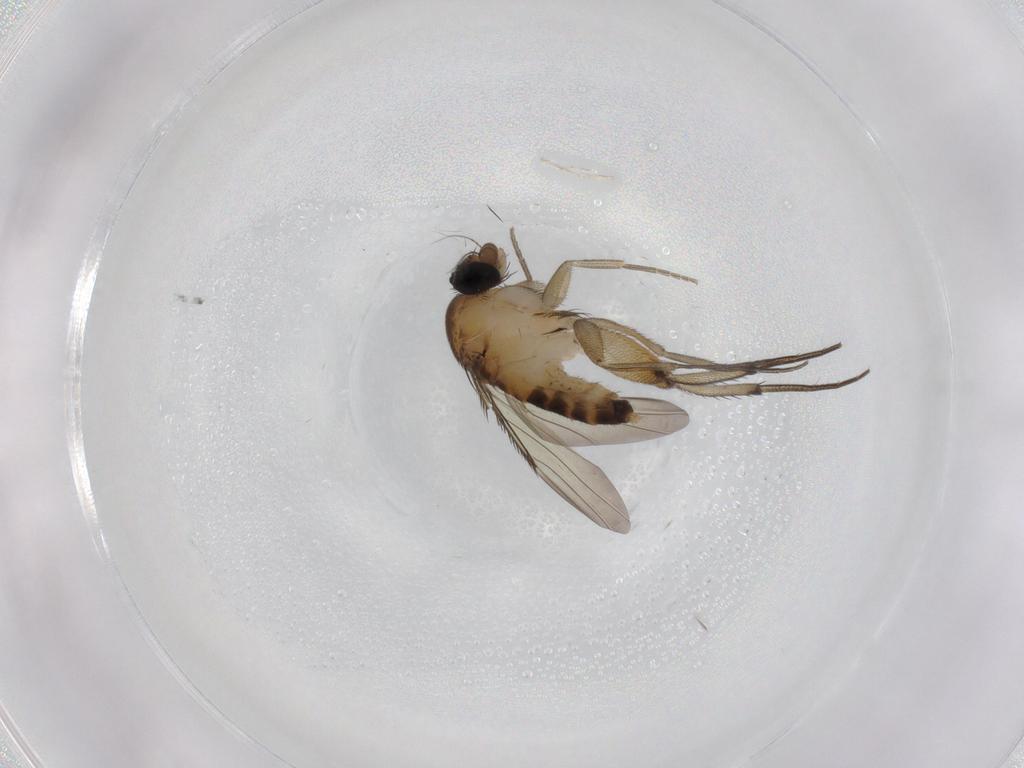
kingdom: Animalia
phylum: Arthropoda
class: Insecta
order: Diptera
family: Phoridae
